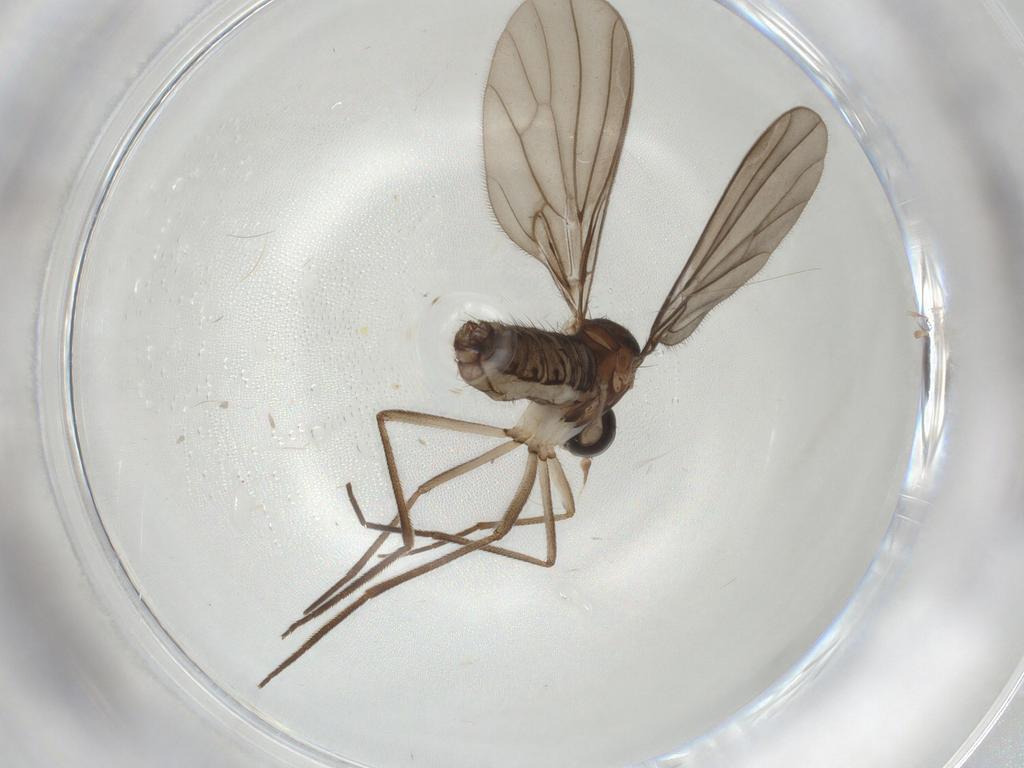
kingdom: Animalia
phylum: Arthropoda
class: Insecta
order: Diptera
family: Empididae
